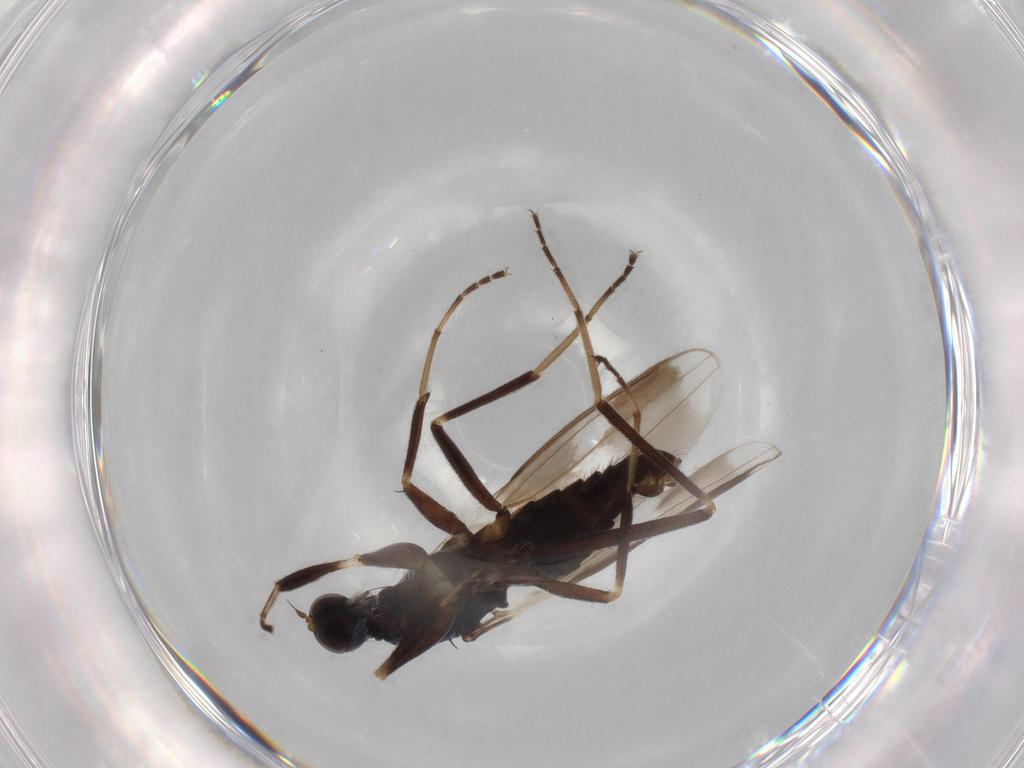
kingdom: Animalia
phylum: Arthropoda
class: Insecta
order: Diptera
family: Hybotidae
